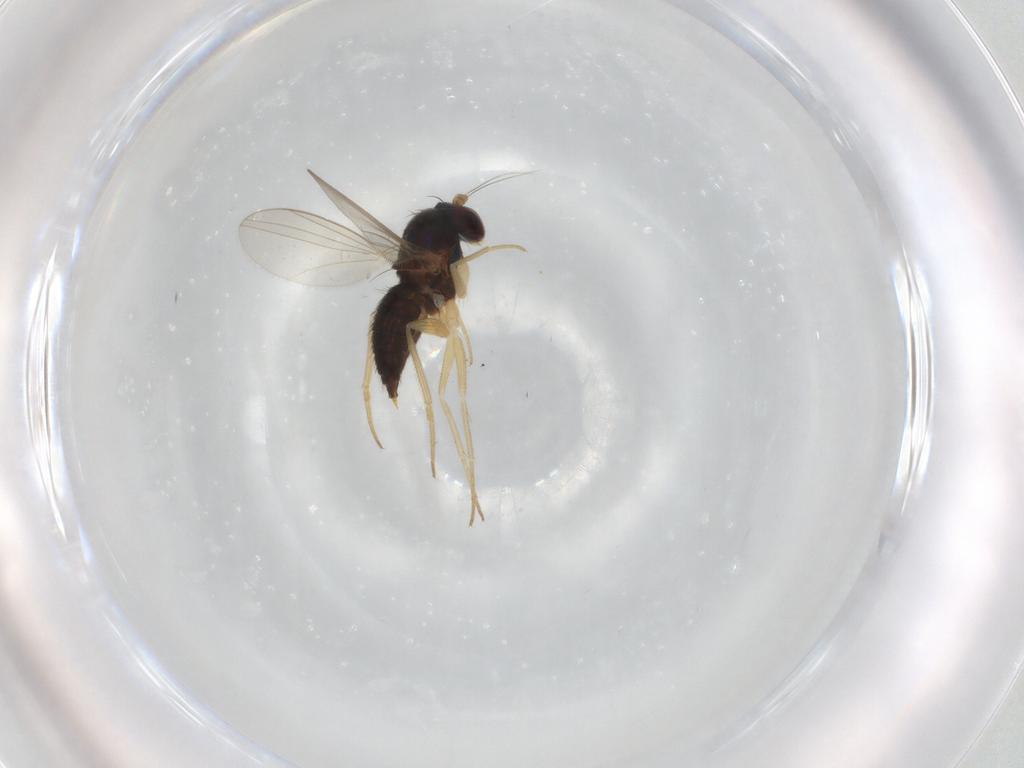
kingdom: Animalia
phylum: Arthropoda
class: Insecta
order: Diptera
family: Dolichopodidae
